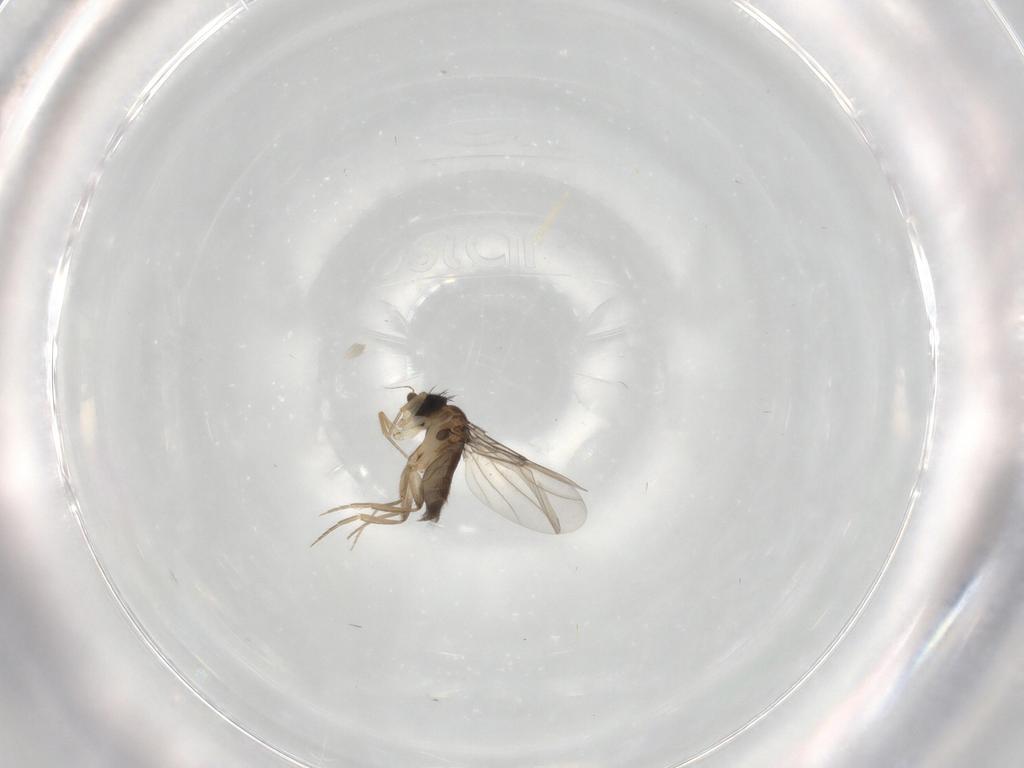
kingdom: Animalia
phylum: Arthropoda
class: Insecta
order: Diptera
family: Phoridae
